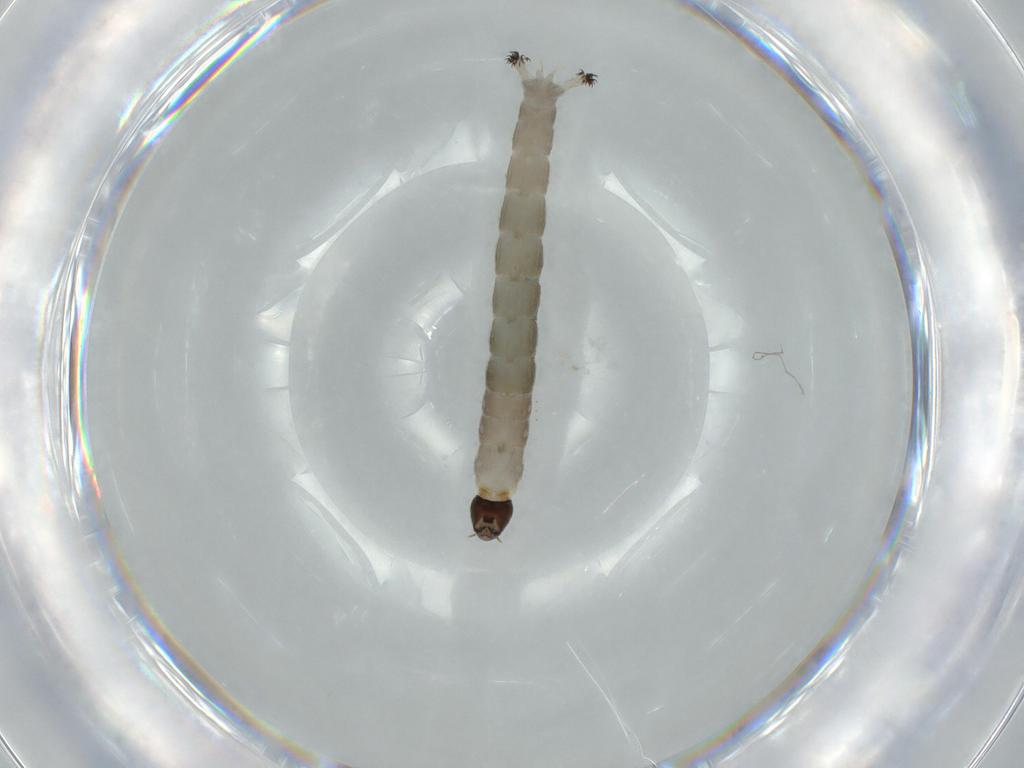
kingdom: Animalia
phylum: Arthropoda
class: Insecta
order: Diptera
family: Chironomidae
